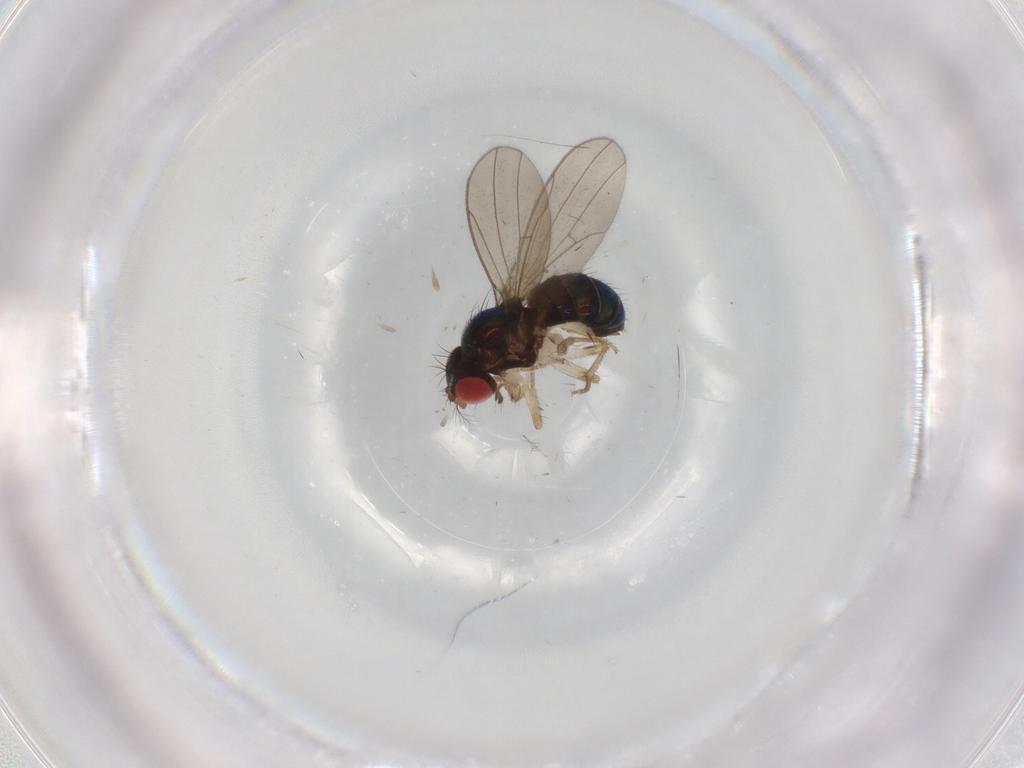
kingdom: Animalia
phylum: Arthropoda
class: Insecta
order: Diptera
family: Drosophilidae
